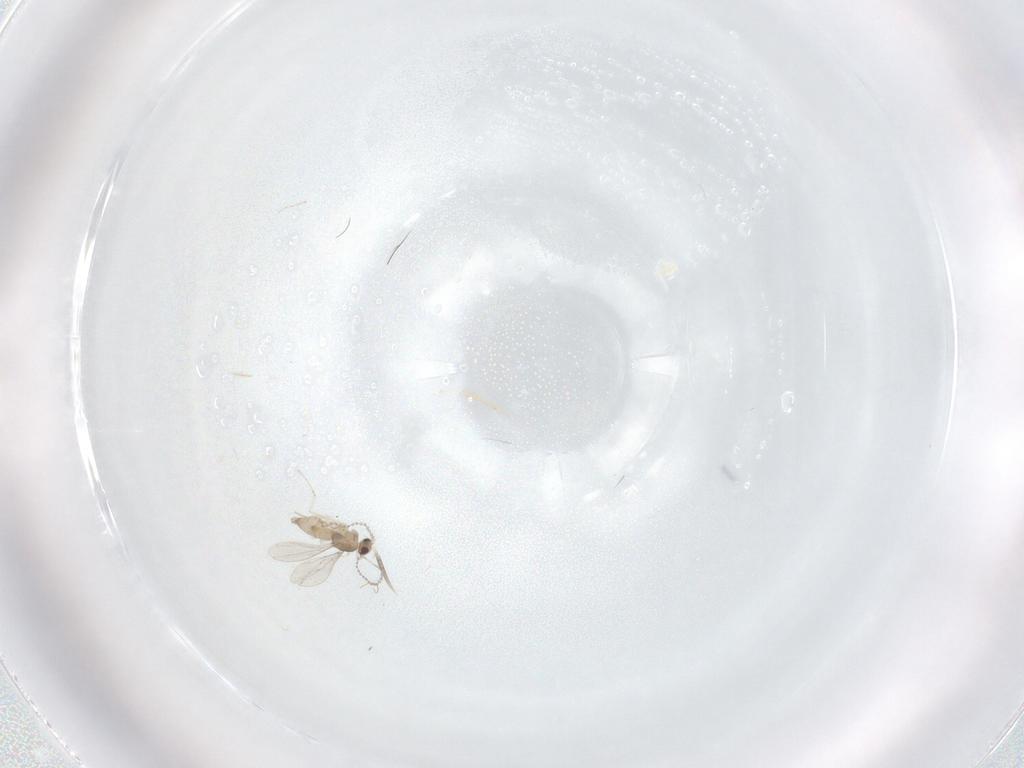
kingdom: Animalia
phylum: Arthropoda
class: Insecta
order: Diptera
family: Cecidomyiidae
